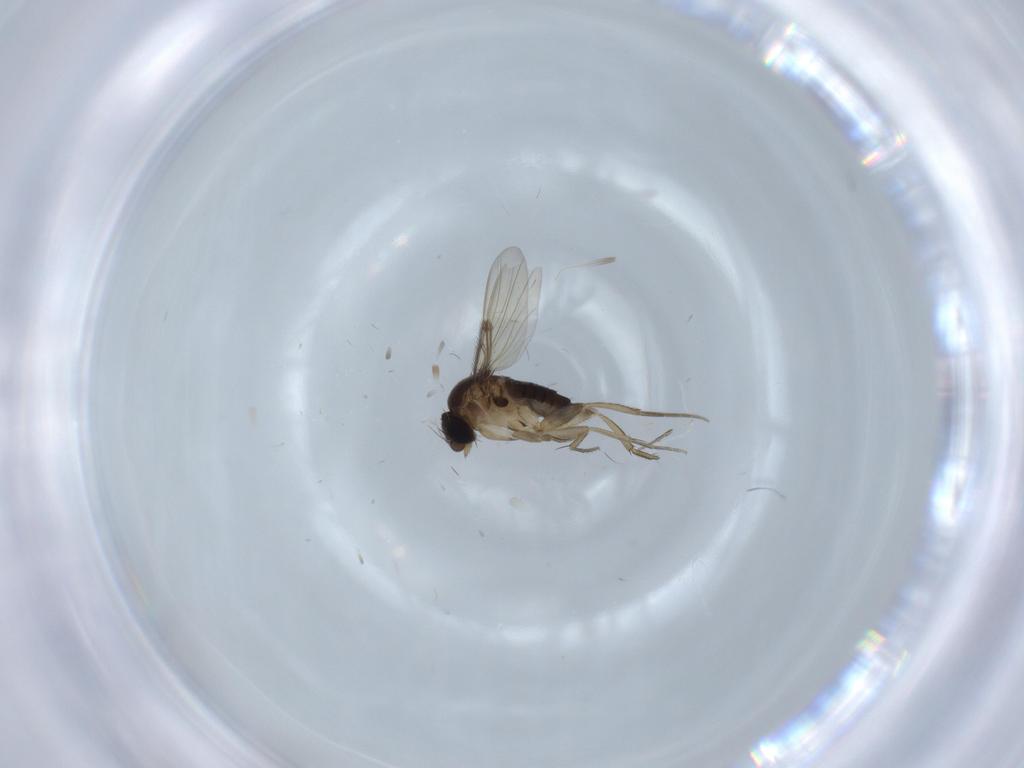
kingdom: Animalia
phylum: Arthropoda
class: Insecta
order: Diptera
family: Phoridae
